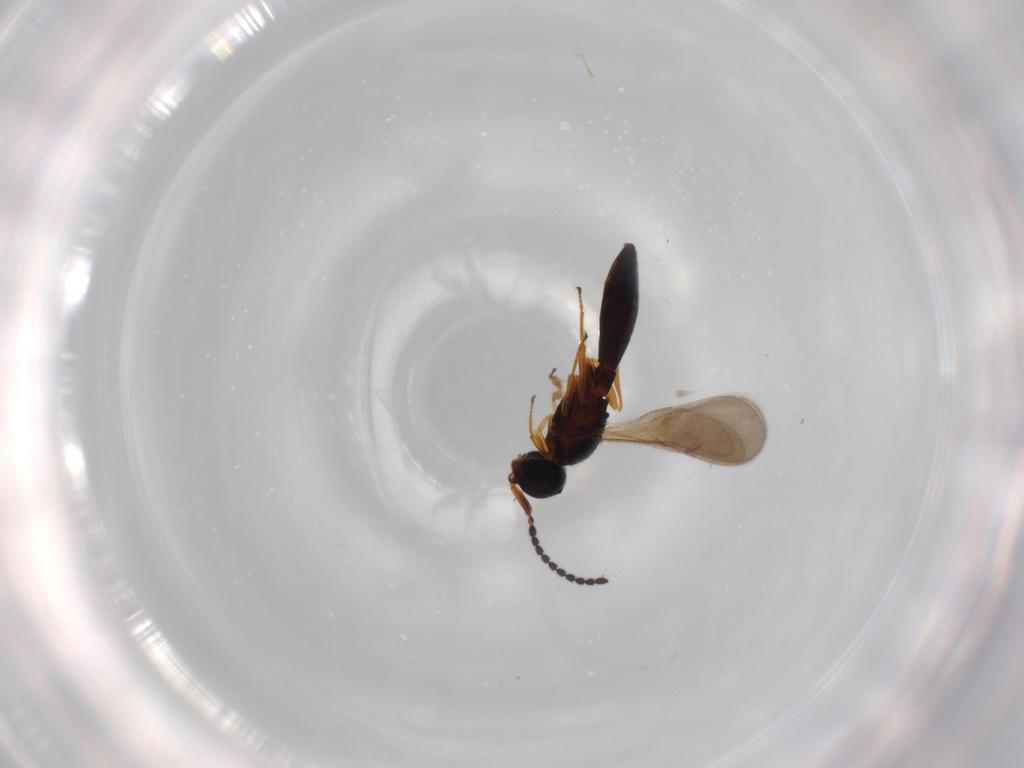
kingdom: Animalia
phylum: Arthropoda
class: Insecta
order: Hymenoptera
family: Scelionidae
